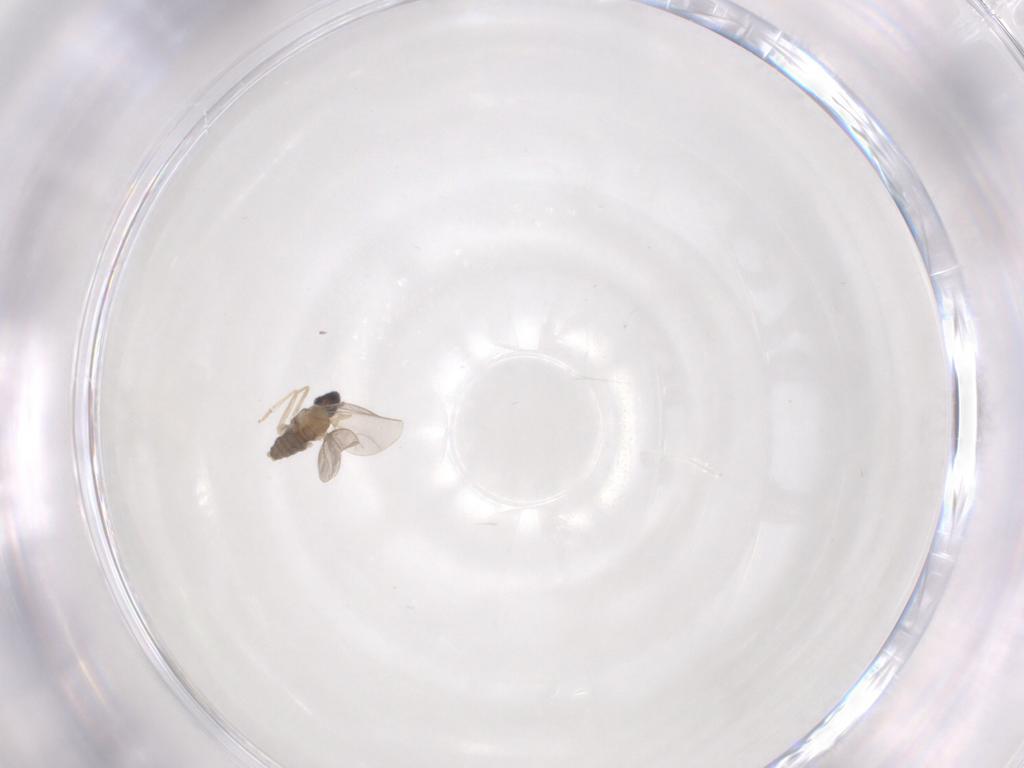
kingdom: Animalia
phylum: Arthropoda
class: Insecta
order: Diptera
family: Cecidomyiidae
